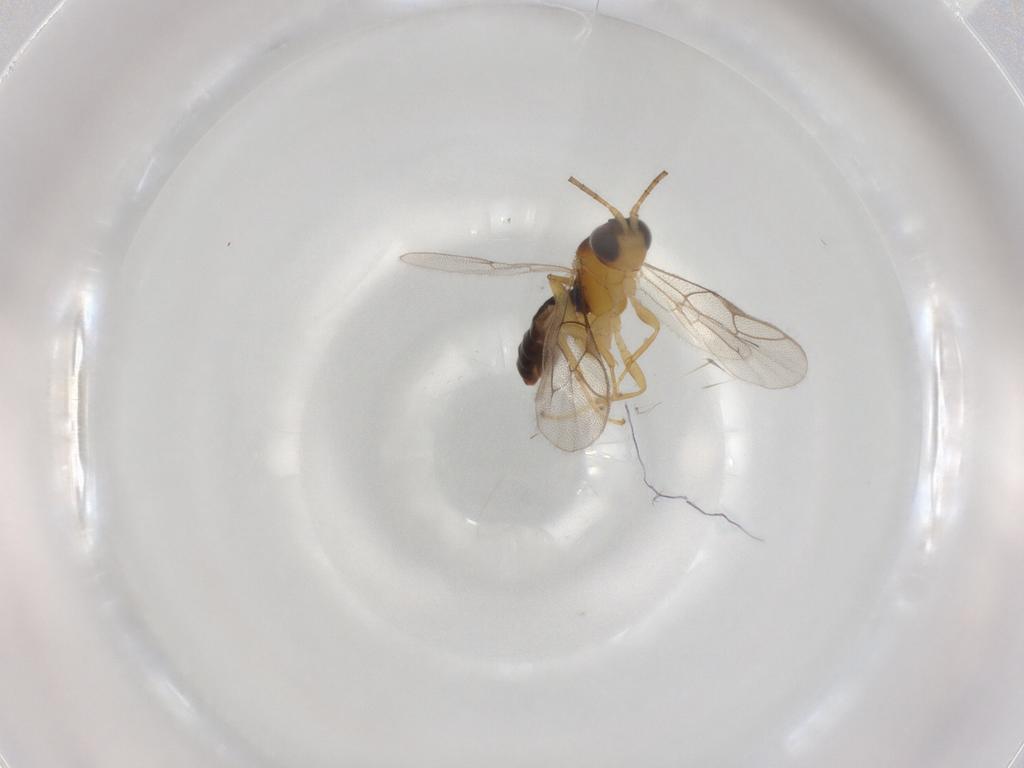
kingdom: Animalia
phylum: Arthropoda
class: Insecta
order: Hymenoptera
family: Ichneumonidae
